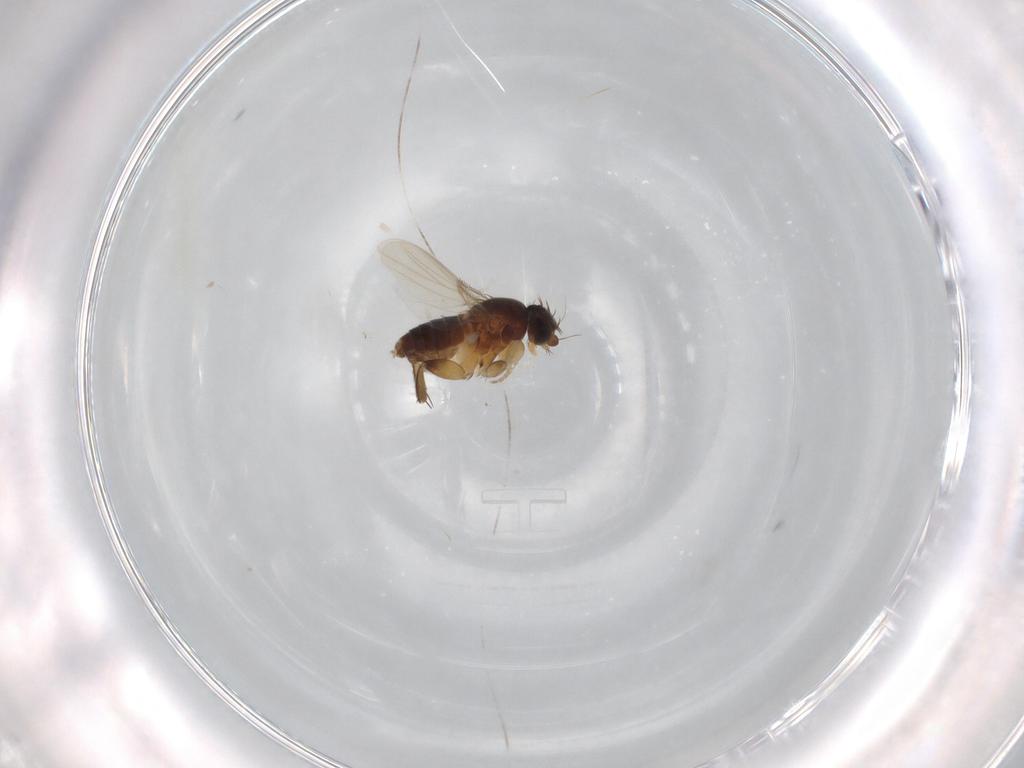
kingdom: Animalia
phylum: Arthropoda
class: Insecta
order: Diptera
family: Phoridae
